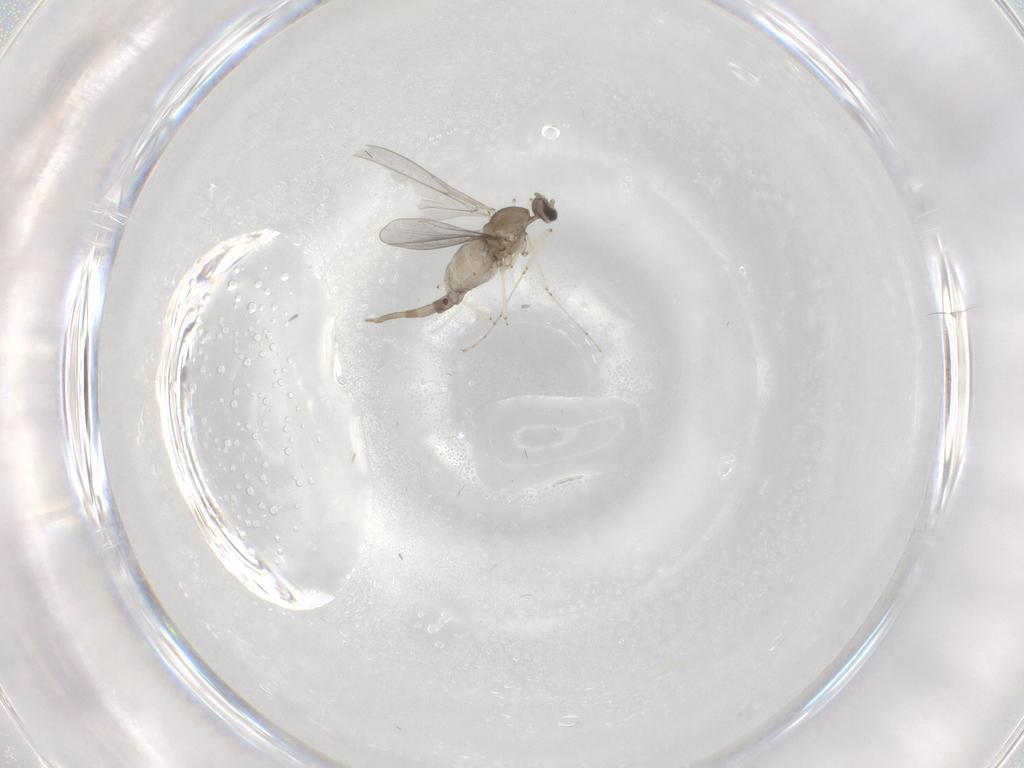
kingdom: Animalia
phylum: Arthropoda
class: Insecta
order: Diptera
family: Cecidomyiidae
